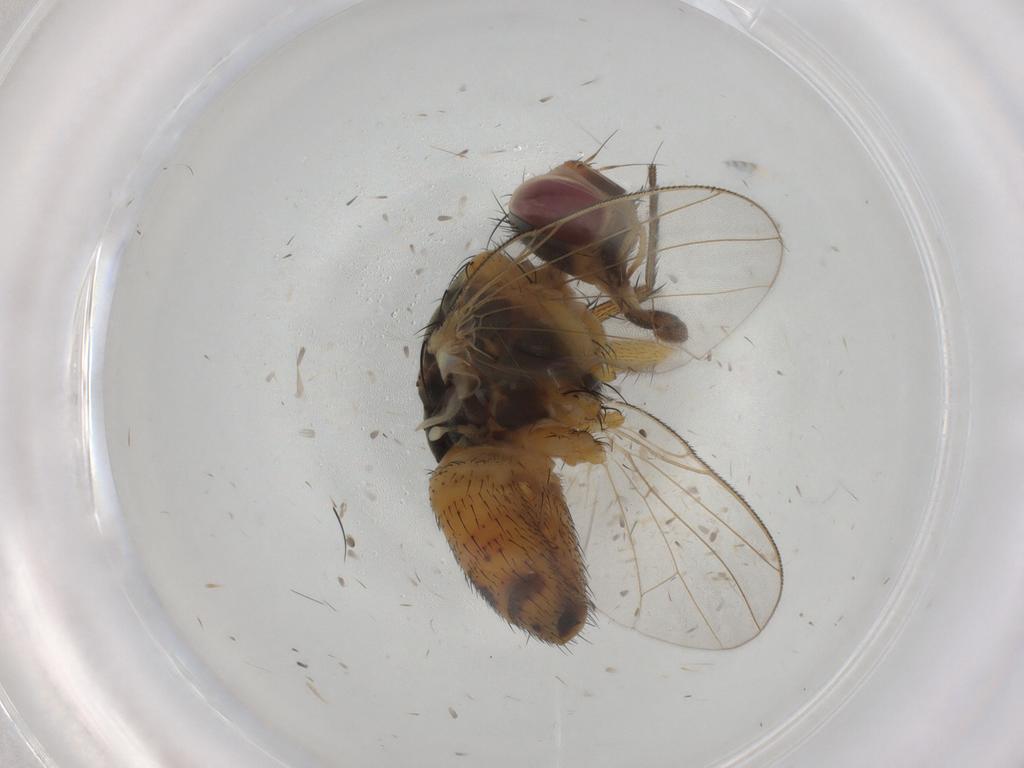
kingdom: Animalia
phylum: Arthropoda
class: Insecta
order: Diptera
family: Muscidae
